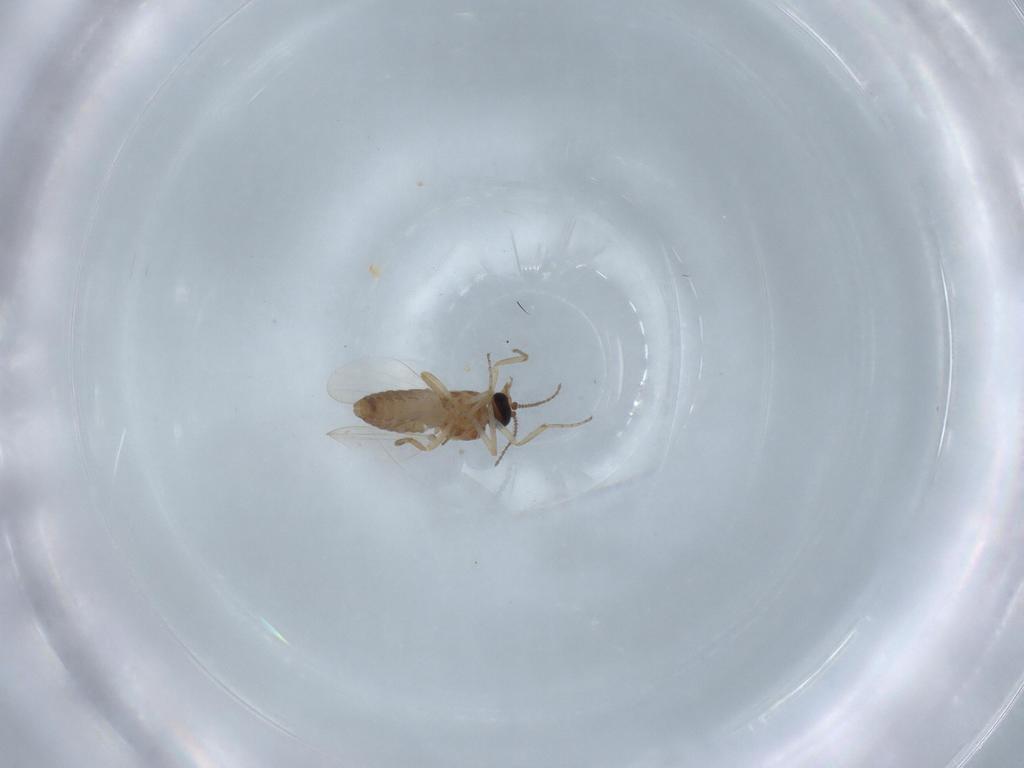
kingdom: Animalia
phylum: Arthropoda
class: Insecta
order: Diptera
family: Ceratopogonidae
